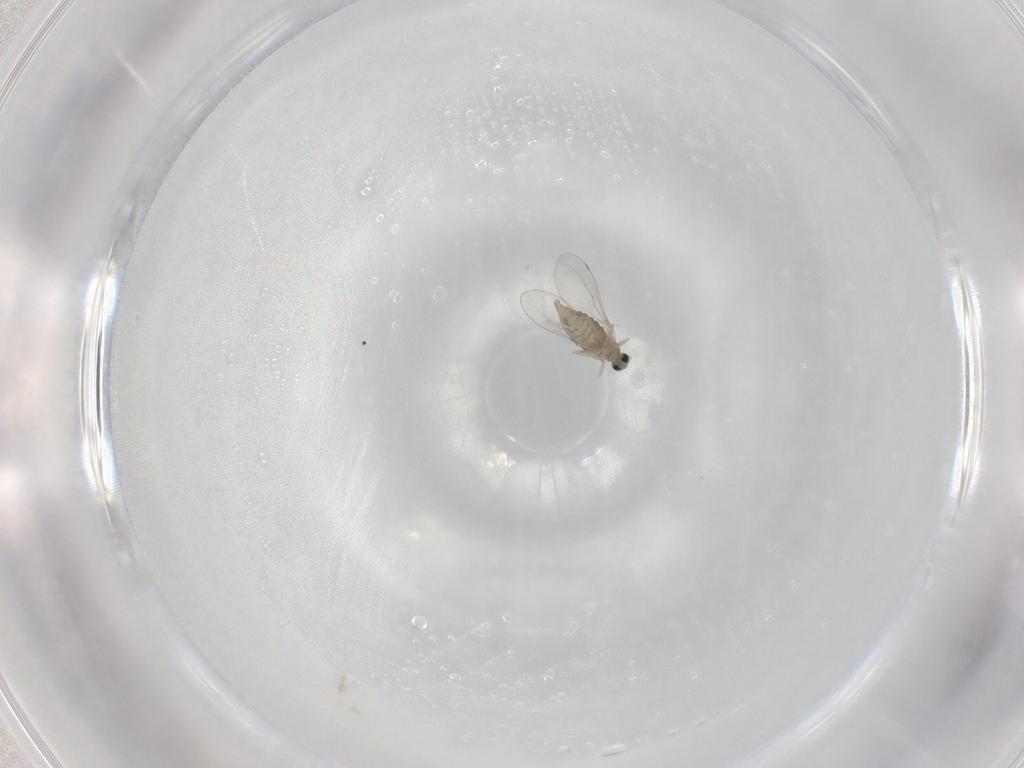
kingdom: Animalia
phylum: Arthropoda
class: Insecta
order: Diptera
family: Cecidomyiidae
